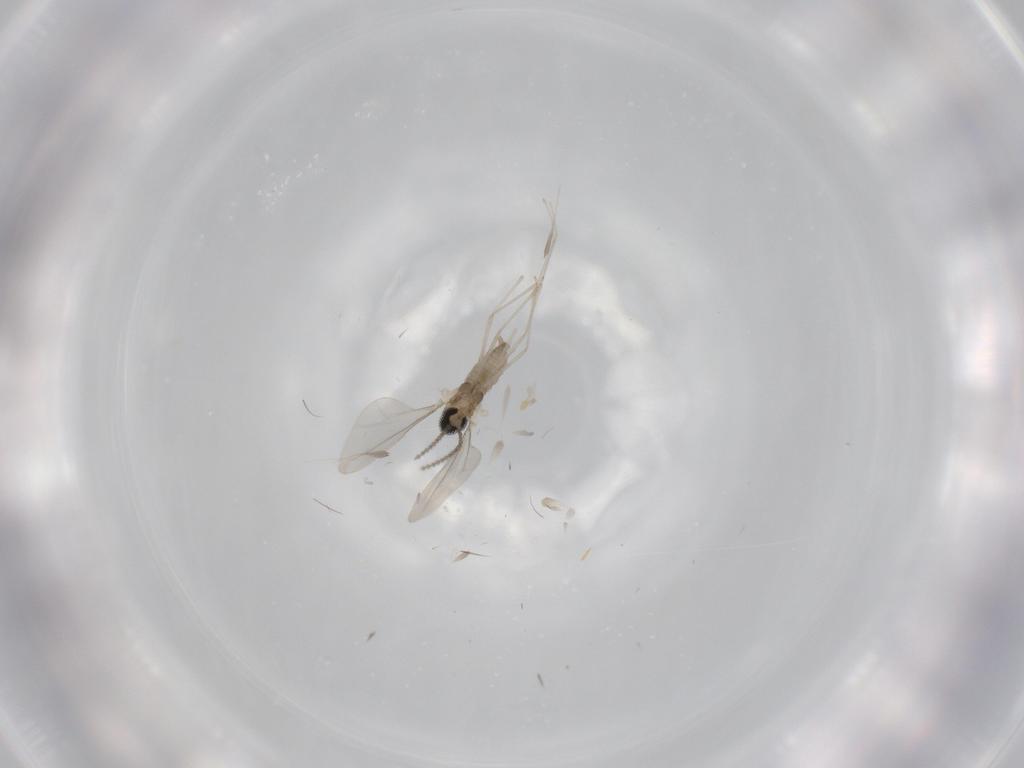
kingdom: Animalia
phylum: Arthropoda
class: Insecta
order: Diptera
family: Cecidomyiidae
